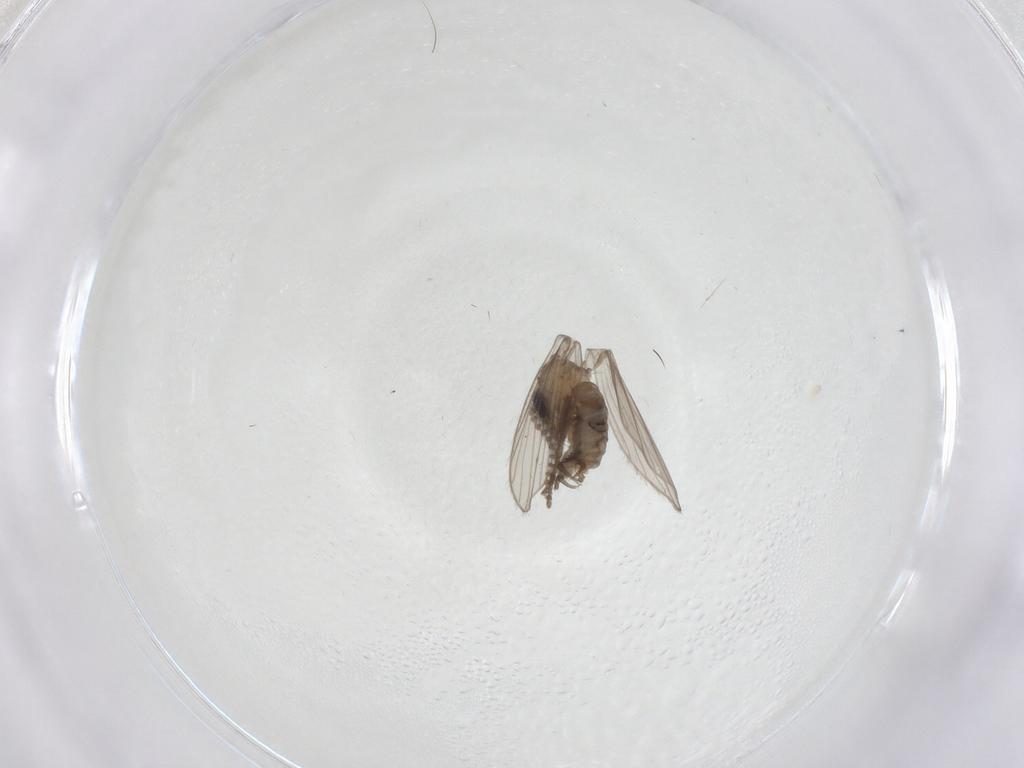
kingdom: Animalia
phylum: Arthropoda
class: Insecta
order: Diptera
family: Psychodidae
